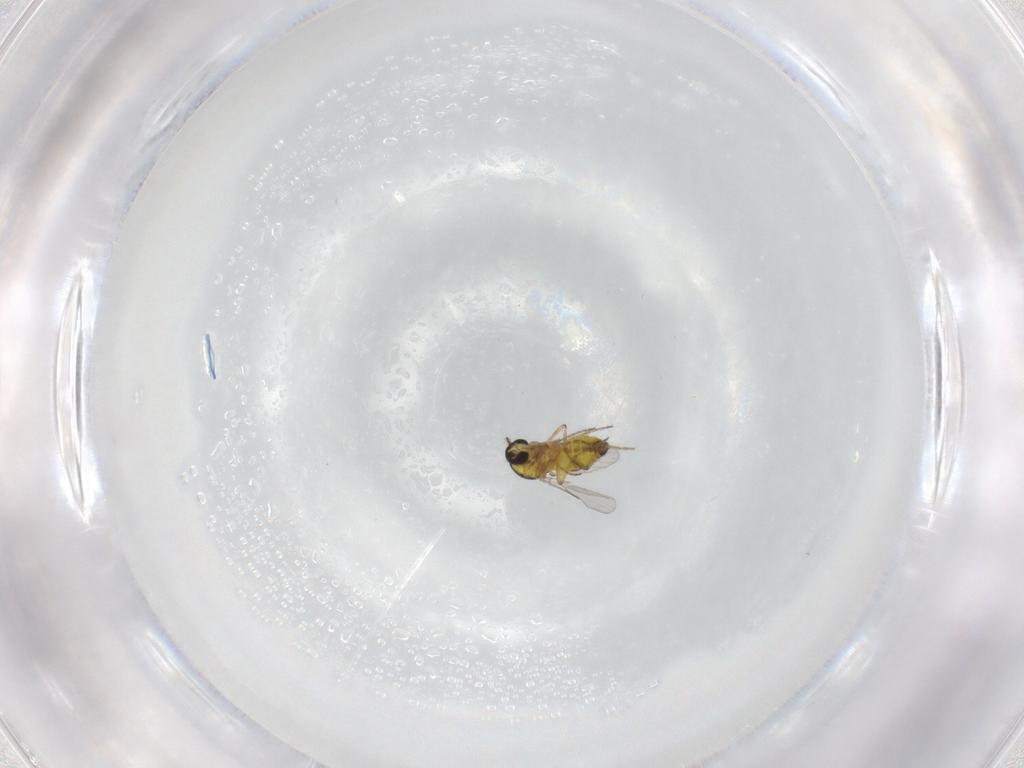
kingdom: Animalia
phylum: Arthropoda
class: Insecta
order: Diptera
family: Ceratopogonidae
